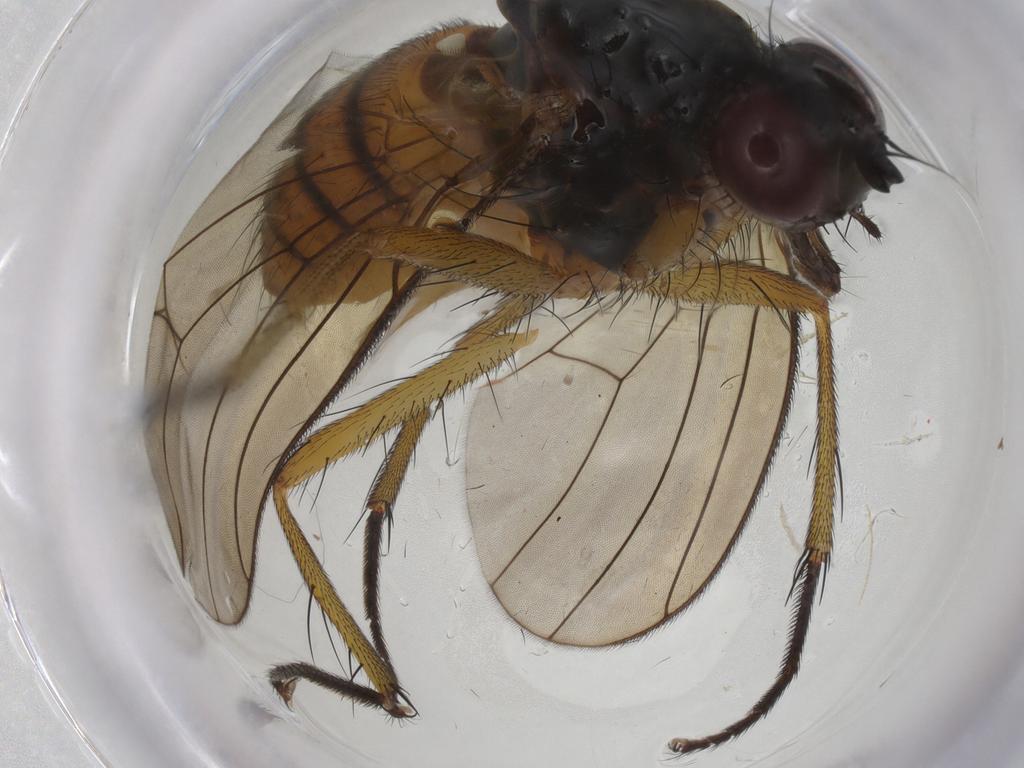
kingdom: Animalia
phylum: Arthropoda
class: Insecta
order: Diptera
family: Muscidae
